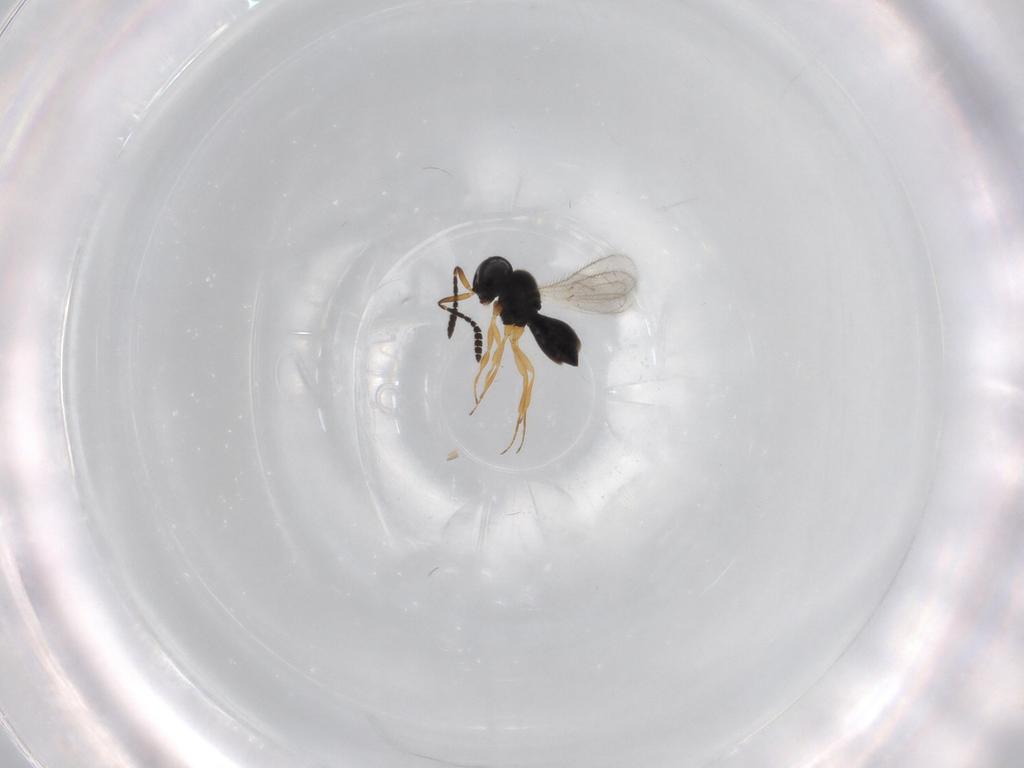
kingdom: Animalia
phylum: Arthropoda
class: Insecta
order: Hymenoptera
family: Scelionidae
